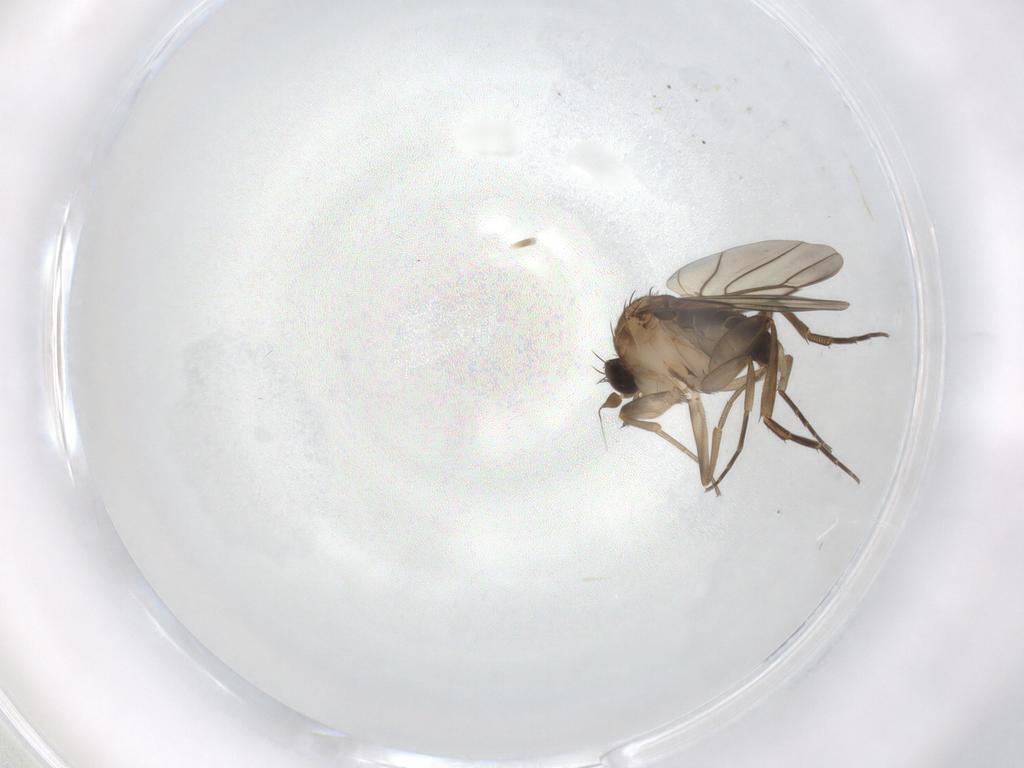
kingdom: Animalia
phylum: Arthropoda
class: Insecta
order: Diptera
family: Phoridae
